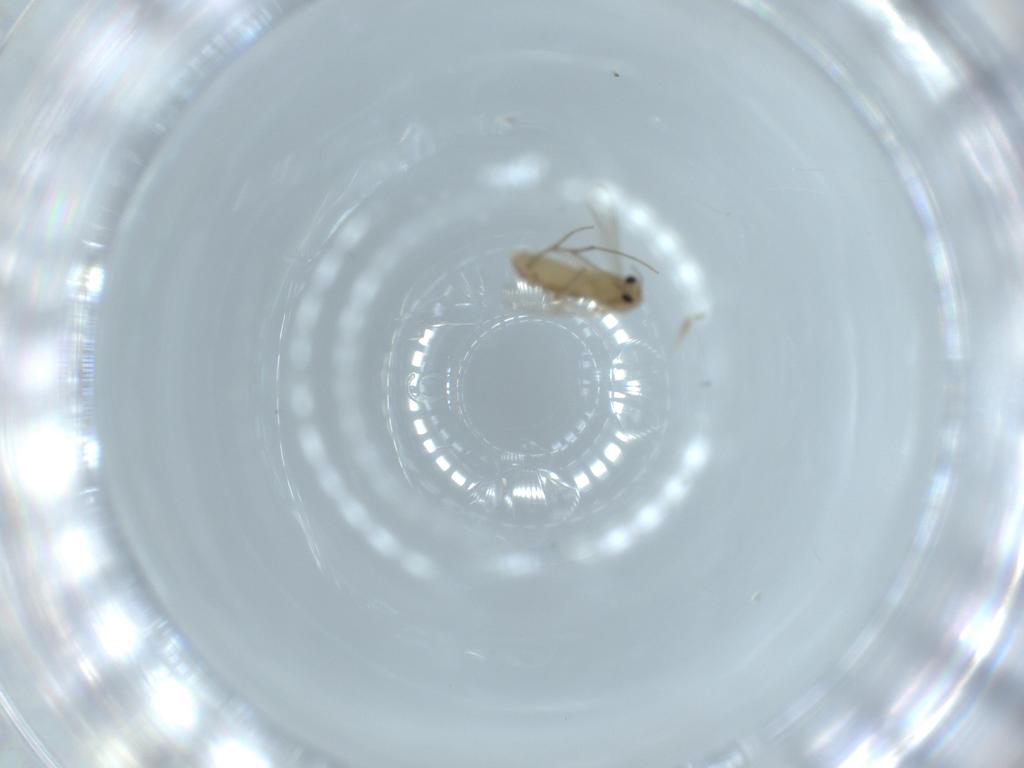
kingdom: Animalia
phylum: Arthropoda
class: Insecta
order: Diptera
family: Chironomidae
